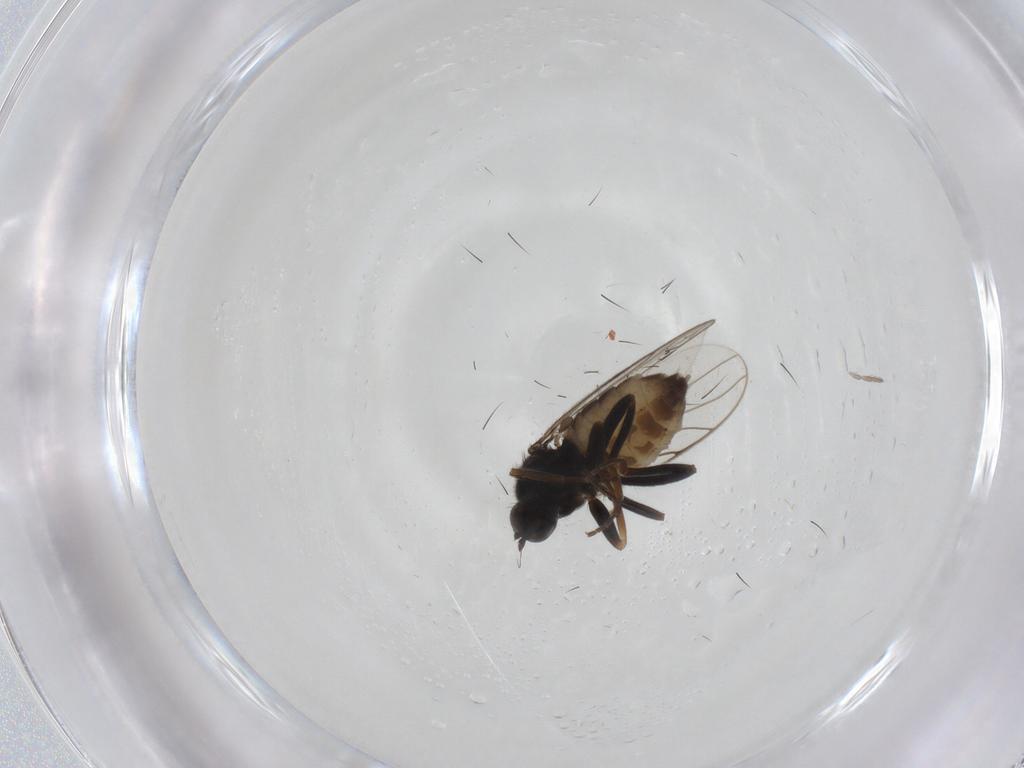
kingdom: Animalia
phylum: Arthropoda
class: Insecta
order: Diptera
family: Hybotidae
